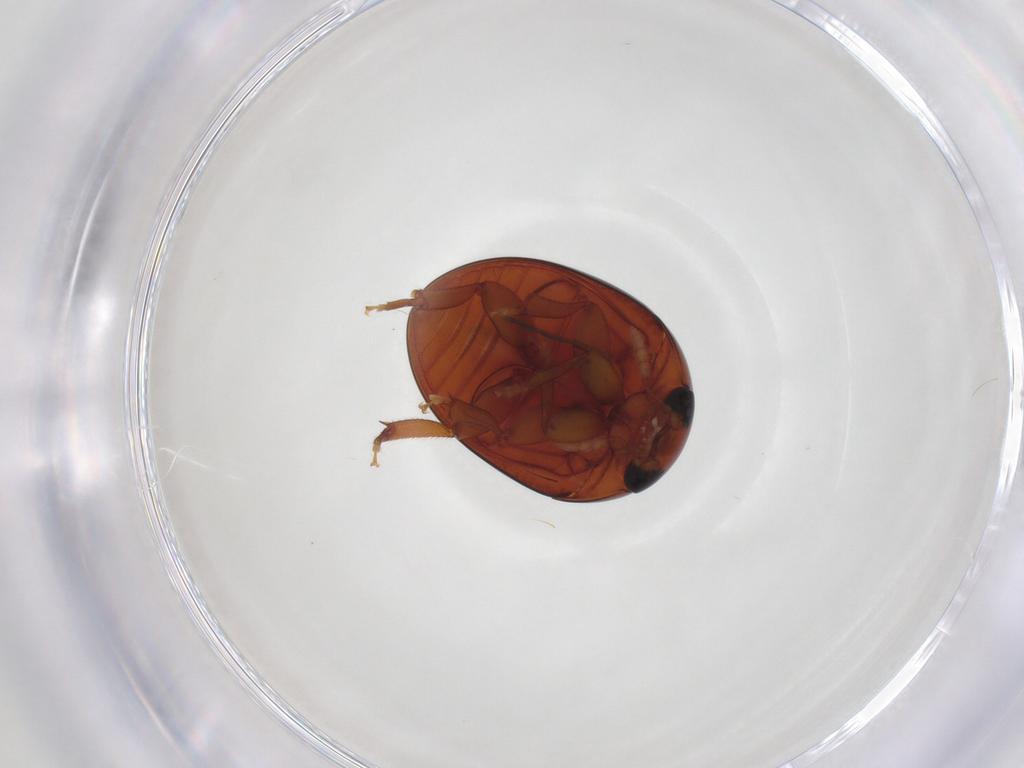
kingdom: Animalia
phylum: Arthropoda
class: Insecta
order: Coleoptera
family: Phalacridae
